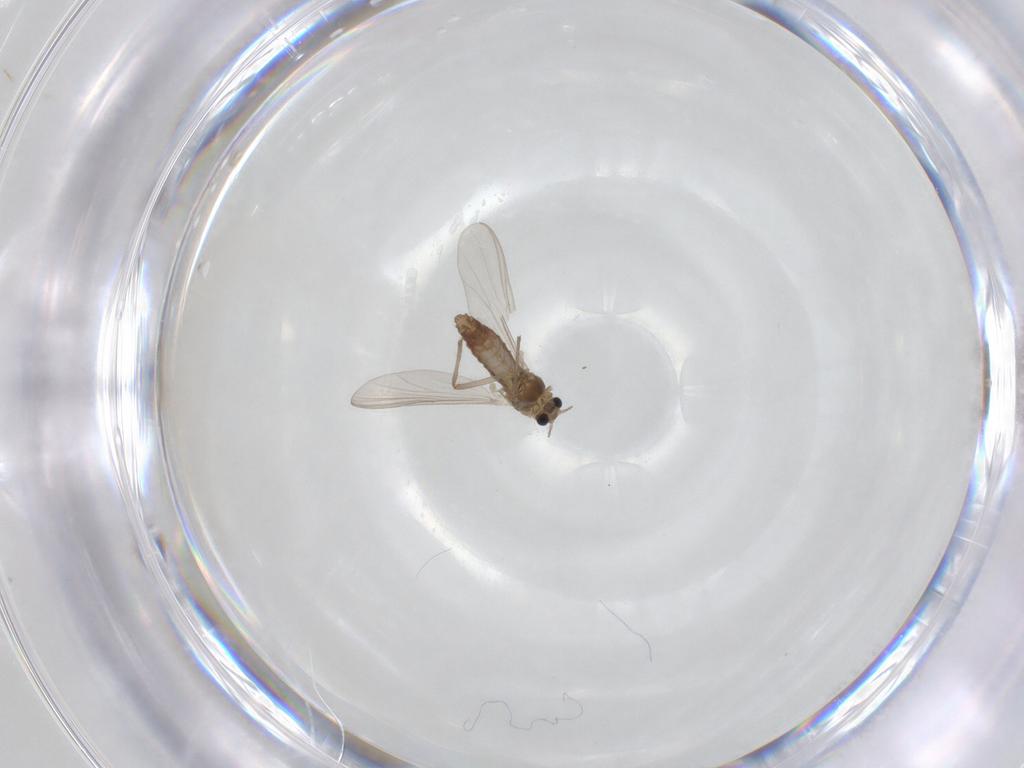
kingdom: Animalia
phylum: Arthropoda
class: Insecta
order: Diptera
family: Chironomidae
